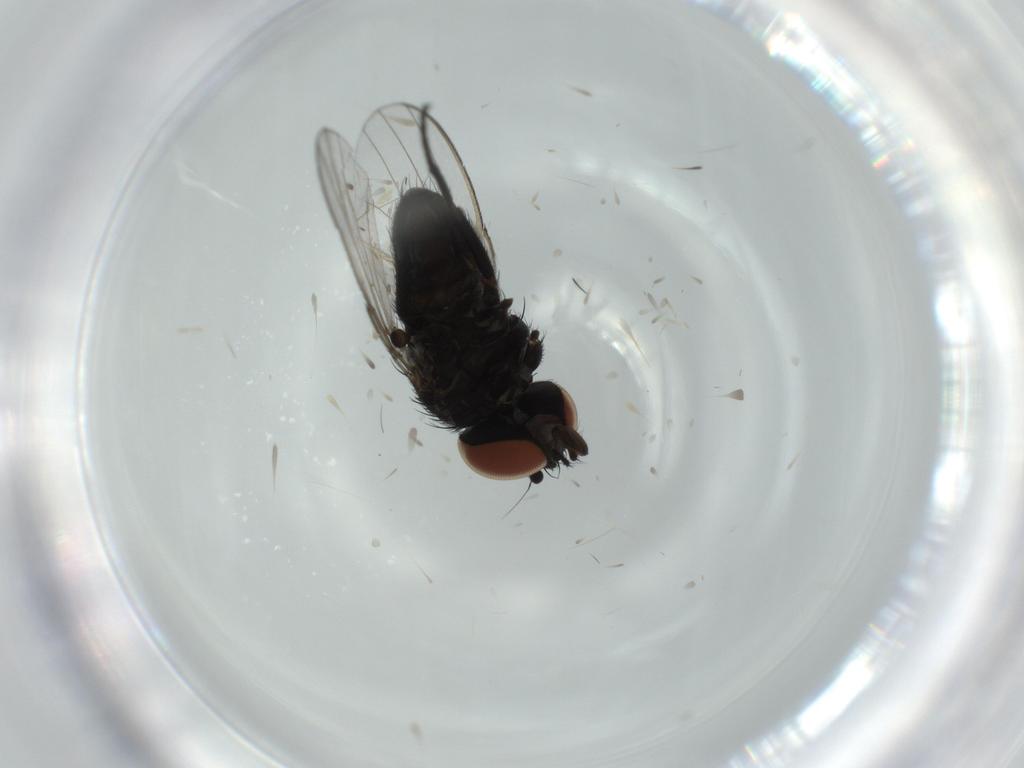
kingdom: Animalia
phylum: Arthropoda
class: Insecta
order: Diptera
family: Milichiidae
